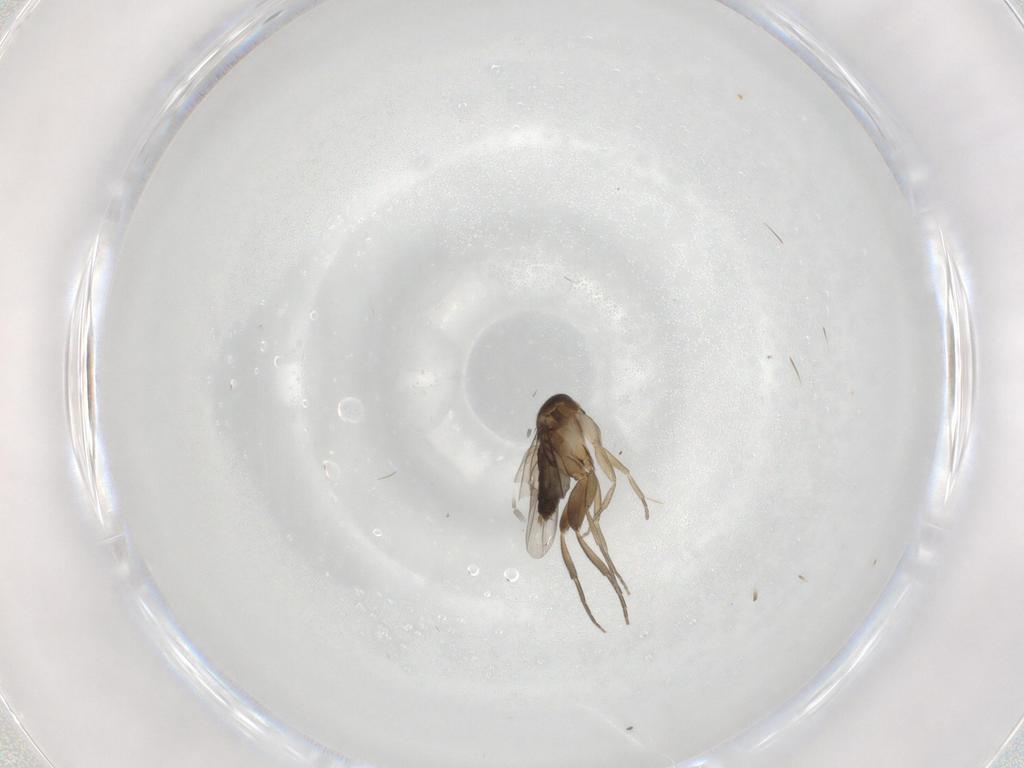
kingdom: Animalia
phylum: Arthropoda
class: Insecta
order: Diptera
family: Phoridae
